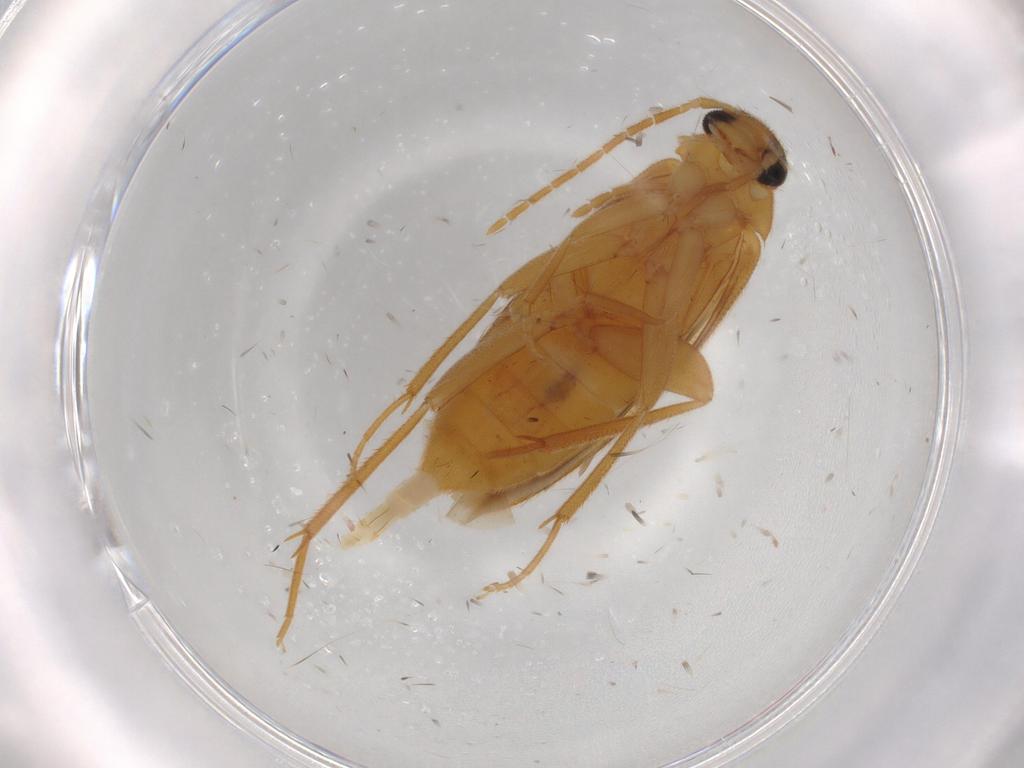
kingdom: Animalia
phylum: Arthropoda
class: Insecta
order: Coleoptera
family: Scraptiidae
